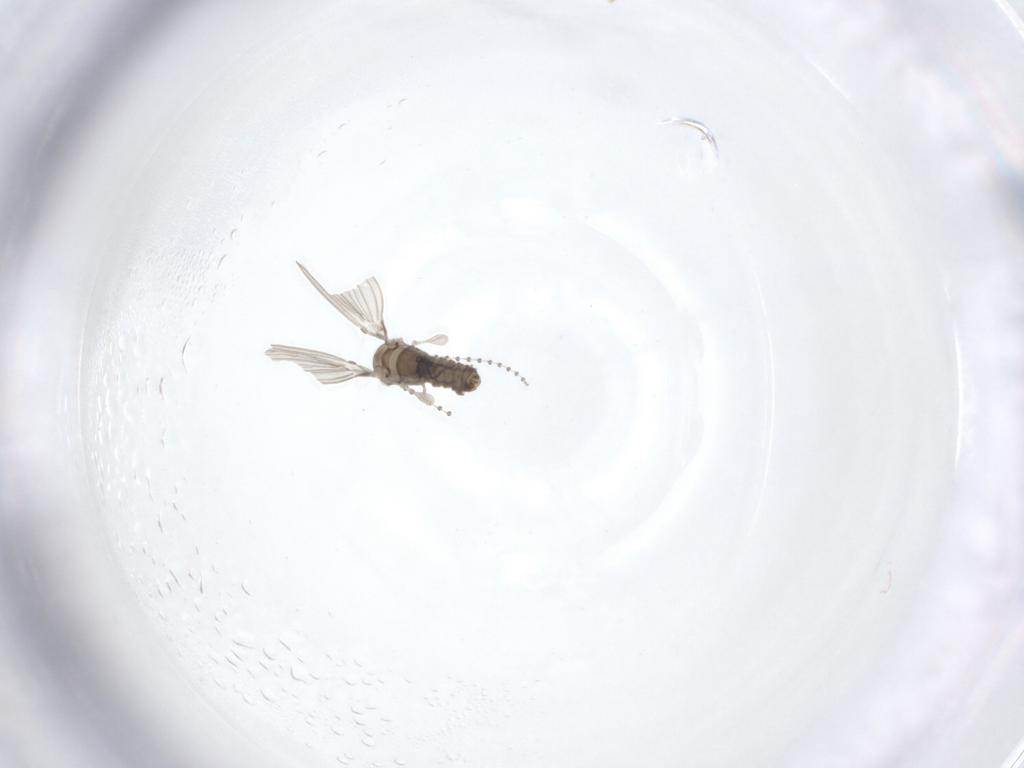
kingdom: Animalia
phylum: Arthropoda
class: Insecta
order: Diptera
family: Psychodidae
